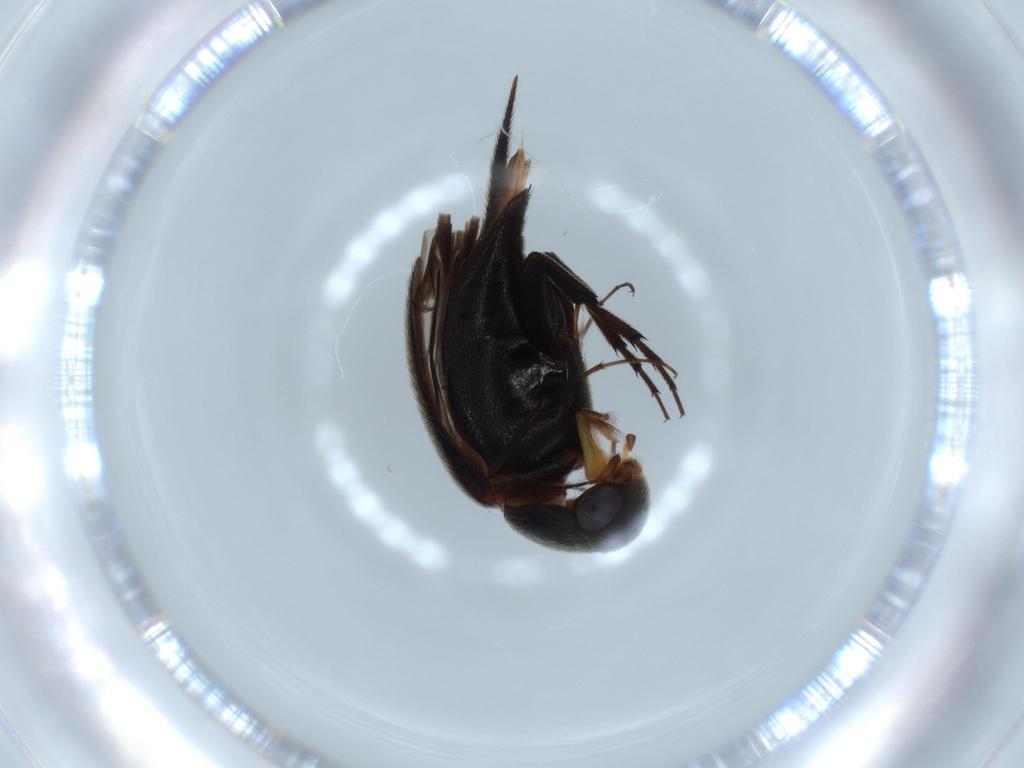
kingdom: Animalia
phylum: Arthropoda
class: Insecta
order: Coleoptera
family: Mordellidae
